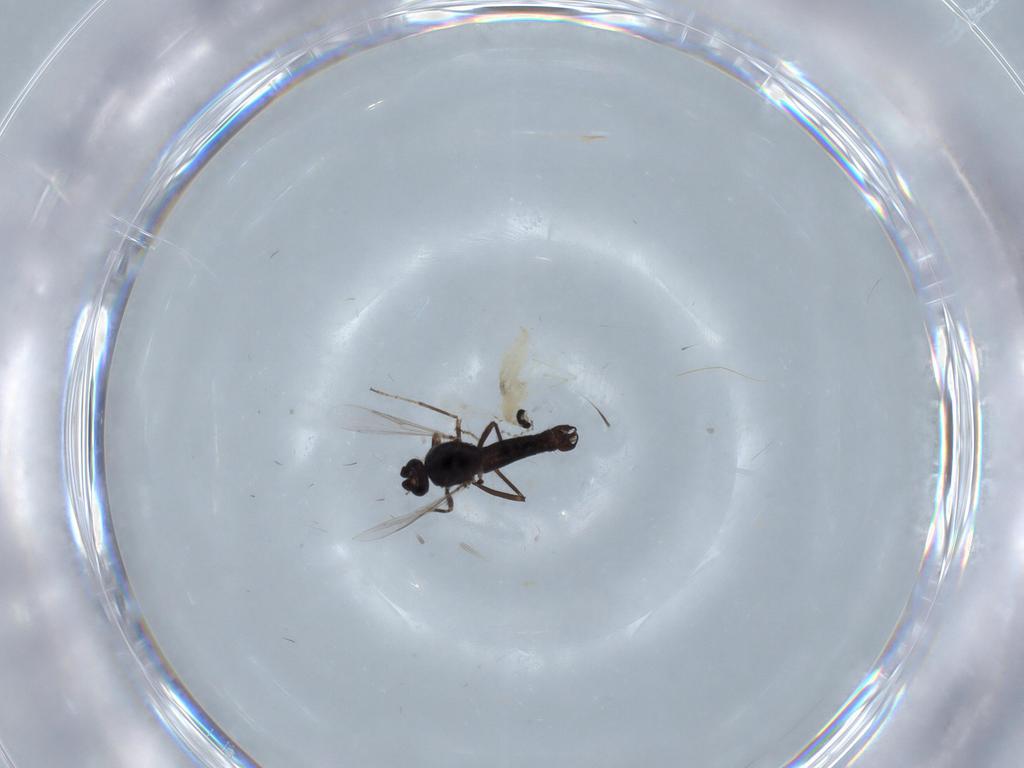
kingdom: Animalia
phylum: Arthropoda
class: Insecta
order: Diptera
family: Cecidomyiidae
